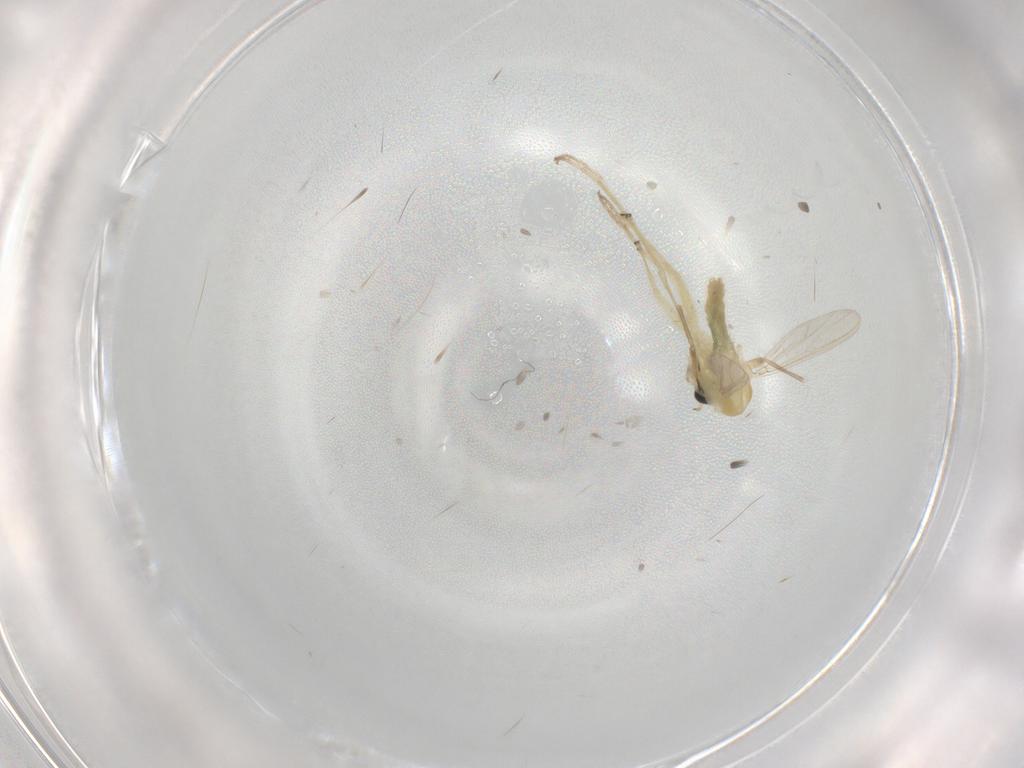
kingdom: Animalia
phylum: Arthropoda
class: Insecta
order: Diptera
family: Chironomidae
